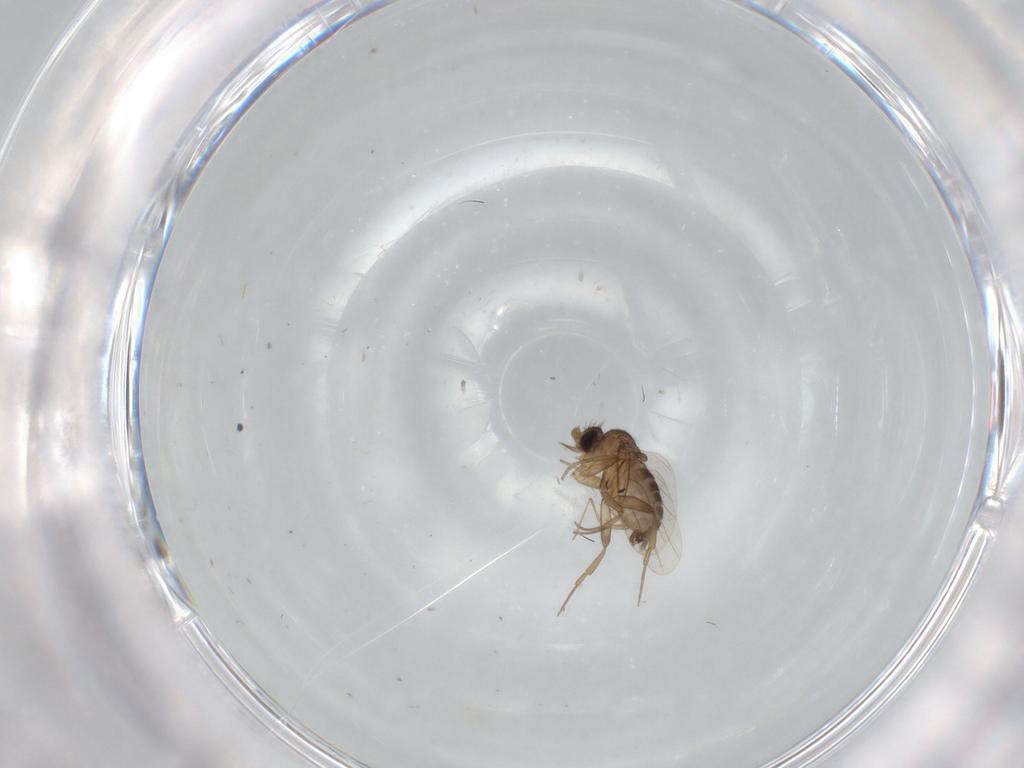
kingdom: Animalia
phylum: Arthropoda
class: Insecta
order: Diptera
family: Phoridae
